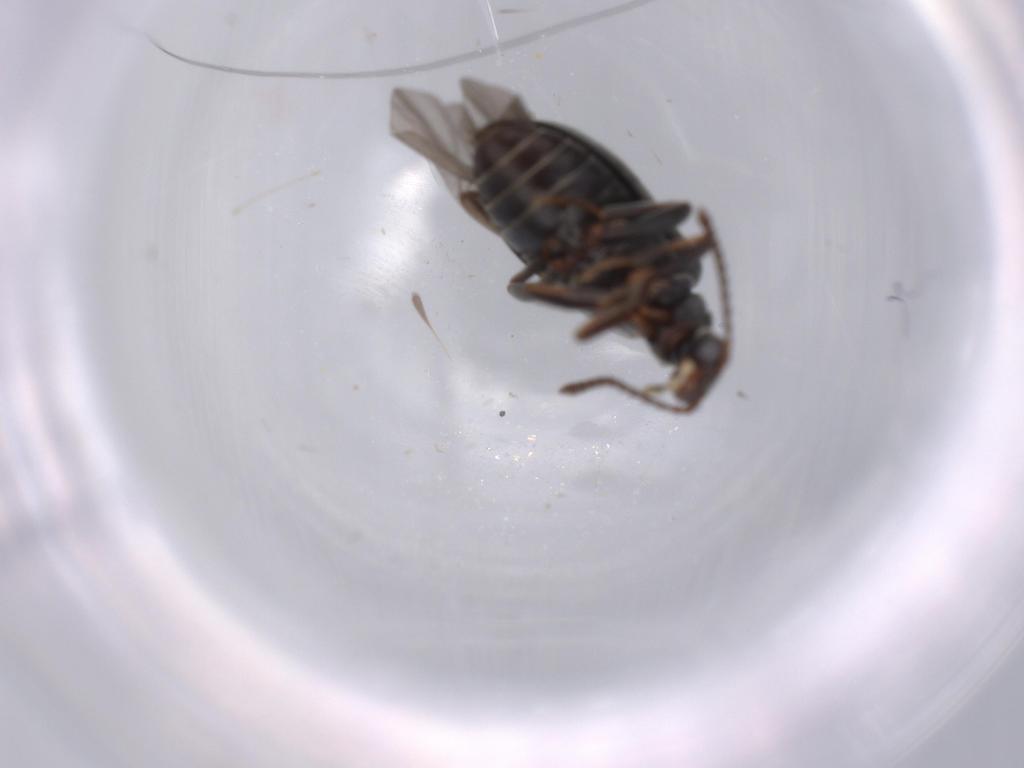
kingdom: Animalia
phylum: Arthropoda
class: Insecta
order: Coleoptera
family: Aderidae
